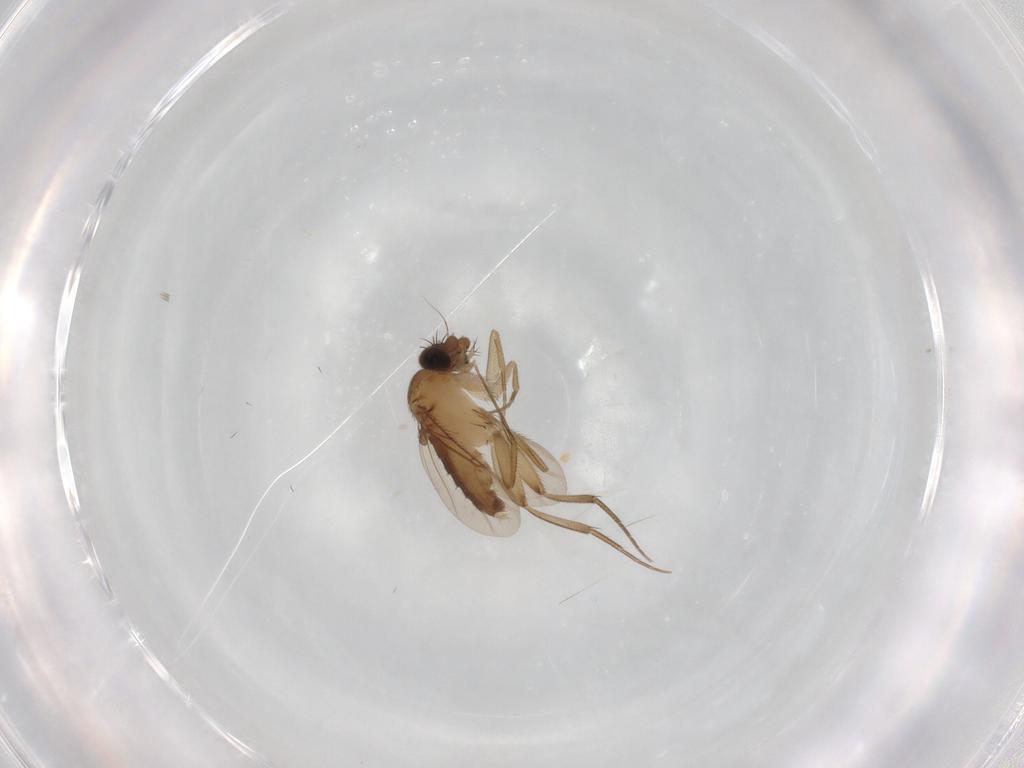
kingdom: Animalia
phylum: Arthropoda
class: Insecta
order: Diptera
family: Phoridae
